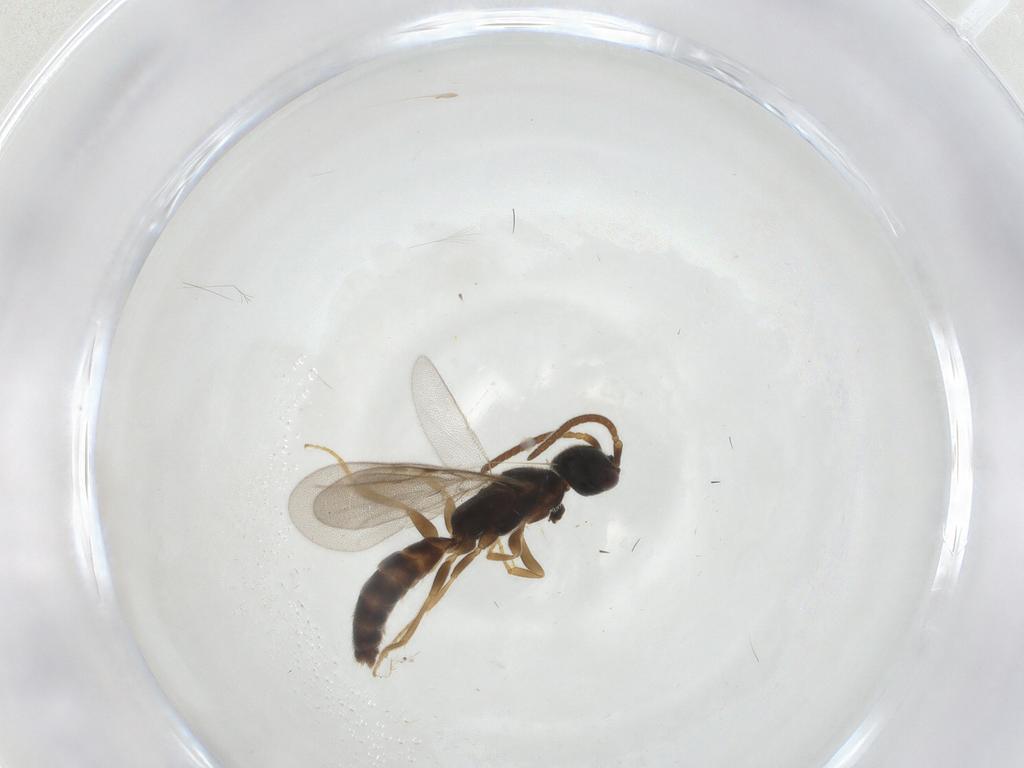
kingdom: Animalia
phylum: Arthropoda
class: Insecta
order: Hymenoptera
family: Bethylidae
